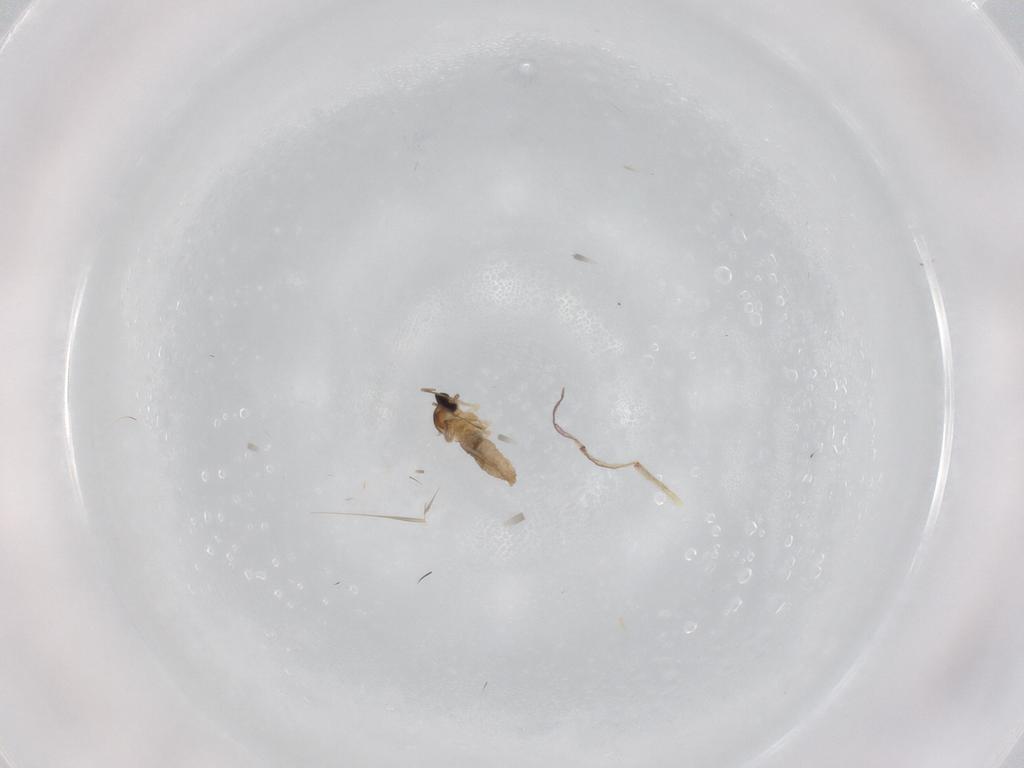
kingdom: Animalia
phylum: Arthropoda
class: Insecta
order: Diptera
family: Cecidomyiidae
